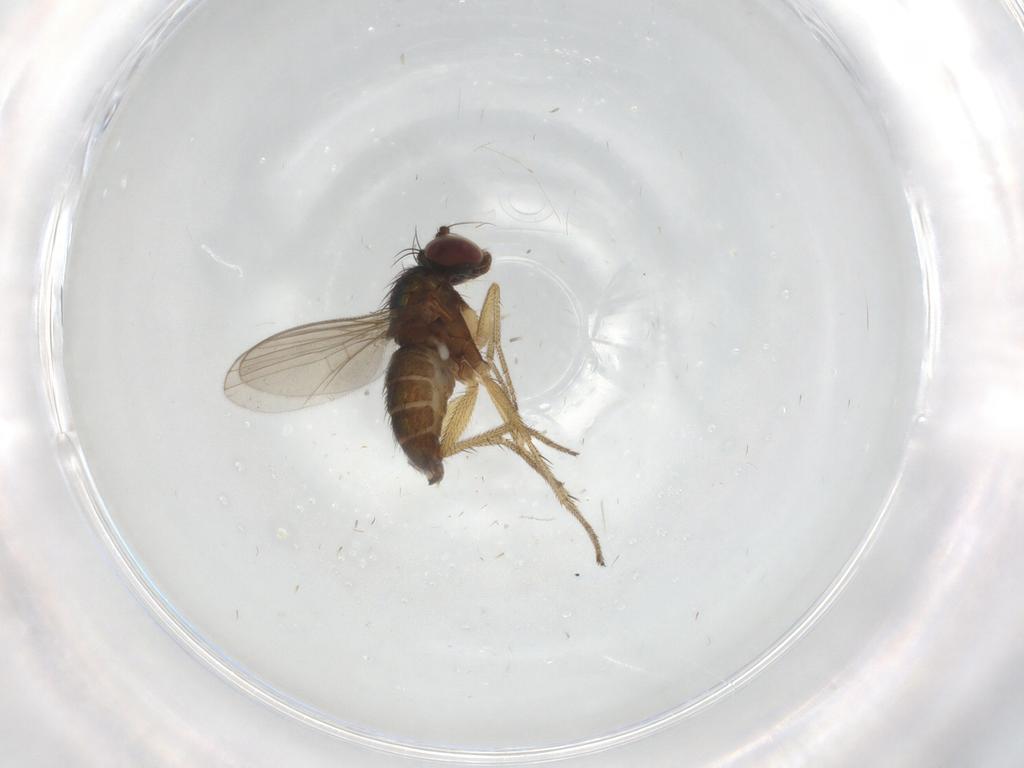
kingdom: Animalia
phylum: Arthropoda
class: Insecta
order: Diptera
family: Dolichopodidae
